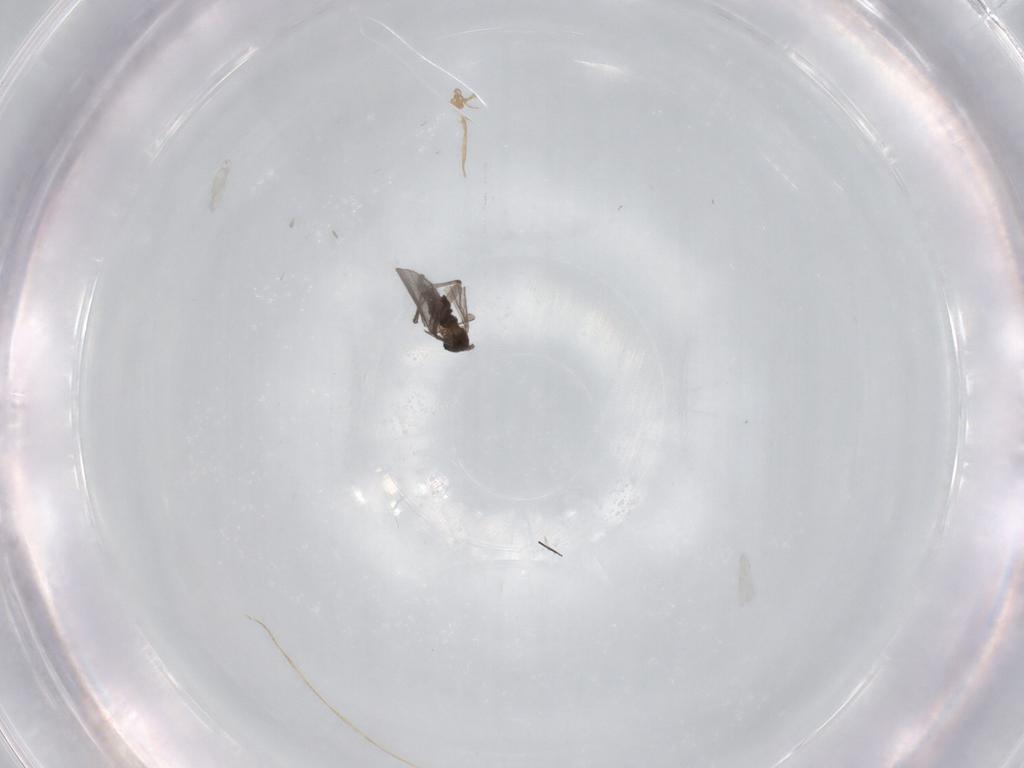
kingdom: Animalia
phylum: Arthropoda
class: Insecta
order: Diptera
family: Sciaridae
